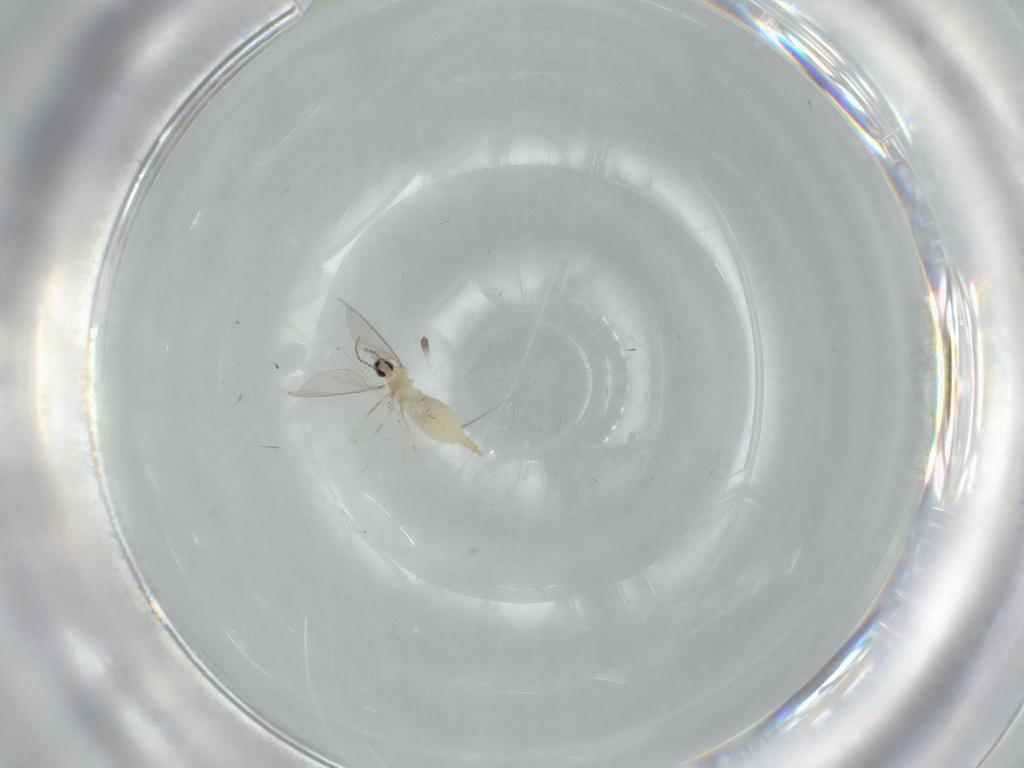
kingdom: Animalia
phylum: Arthropoda
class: Insecta
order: Diptera
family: Cecidomyiidae
